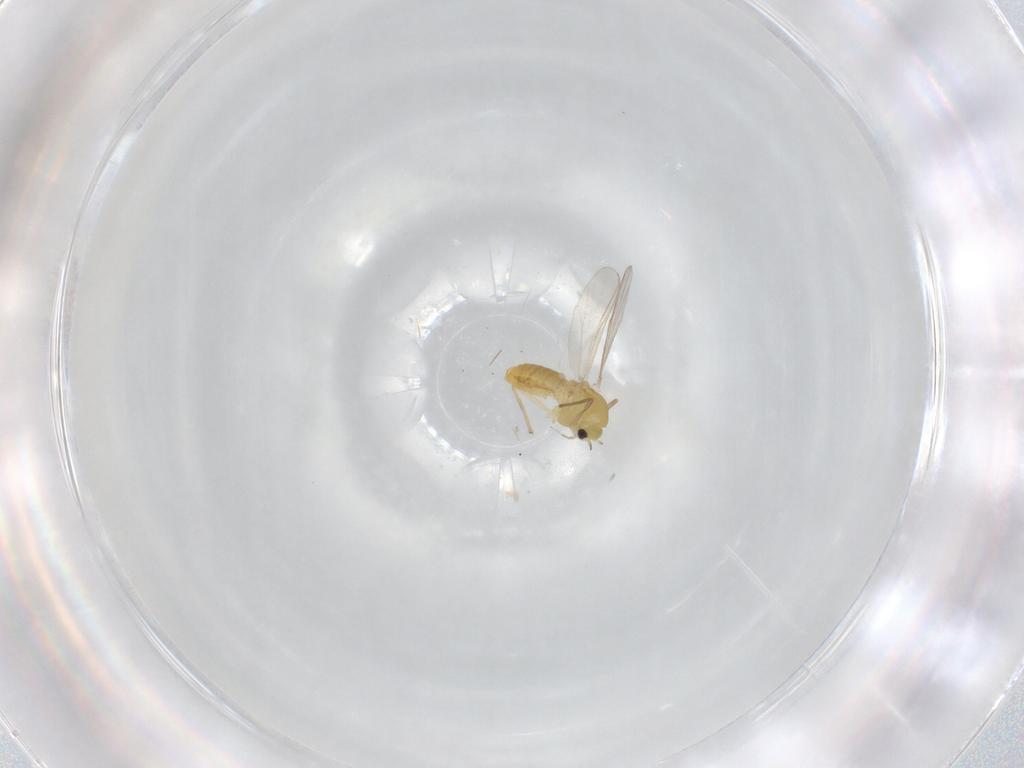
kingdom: Animalia
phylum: Arthropoda
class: Insecta
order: Diptera
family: Chironomidae
